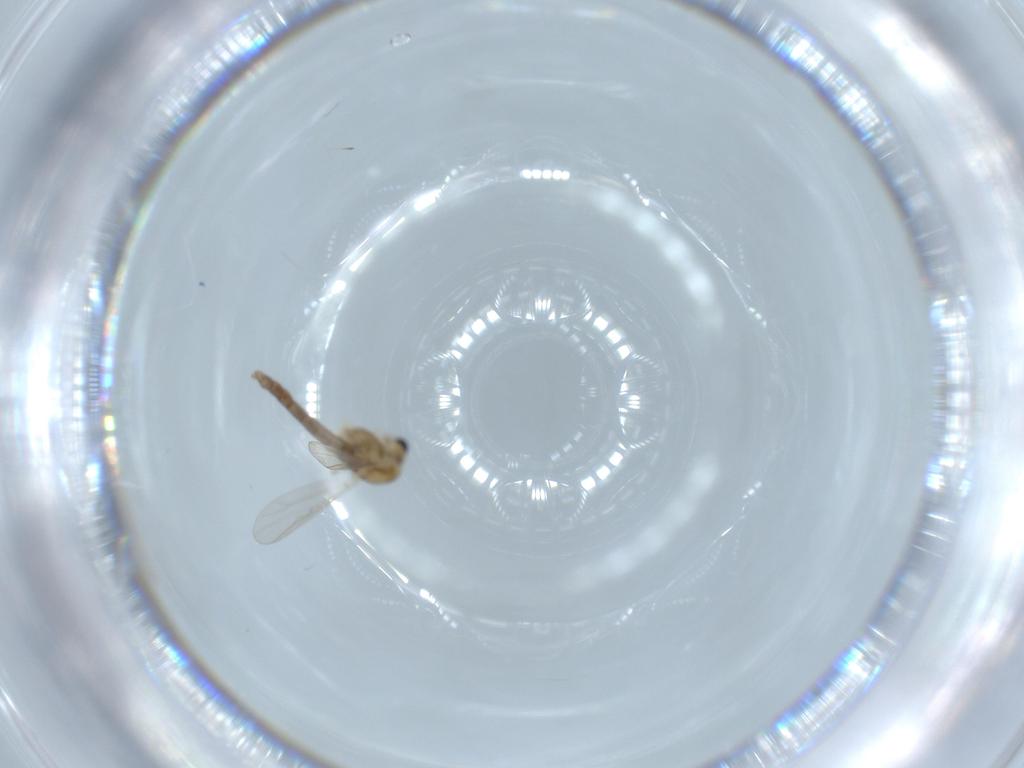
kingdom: Animalia
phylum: Arthropoda
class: Insecta
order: Diptera
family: Chironomidae
